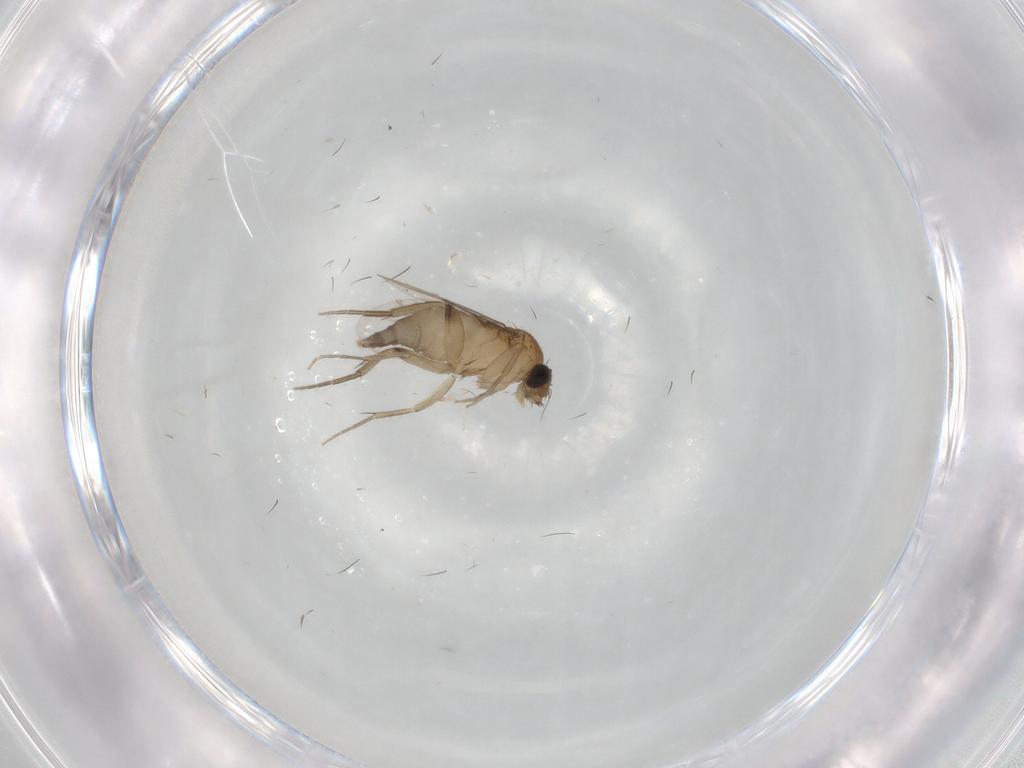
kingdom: Animalia
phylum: Arthropoda
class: Insecta
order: Diptera
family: Phoridae
